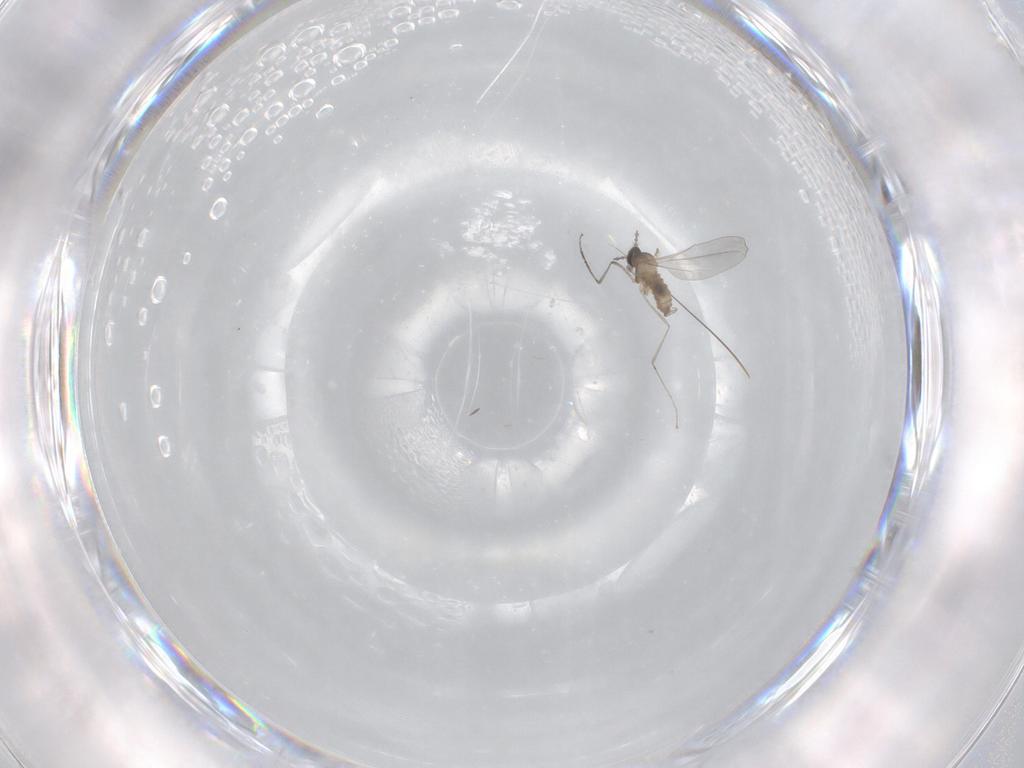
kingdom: Animalia
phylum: Arthropoda
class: Insecta
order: Diptera
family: Cecidomyiidae
